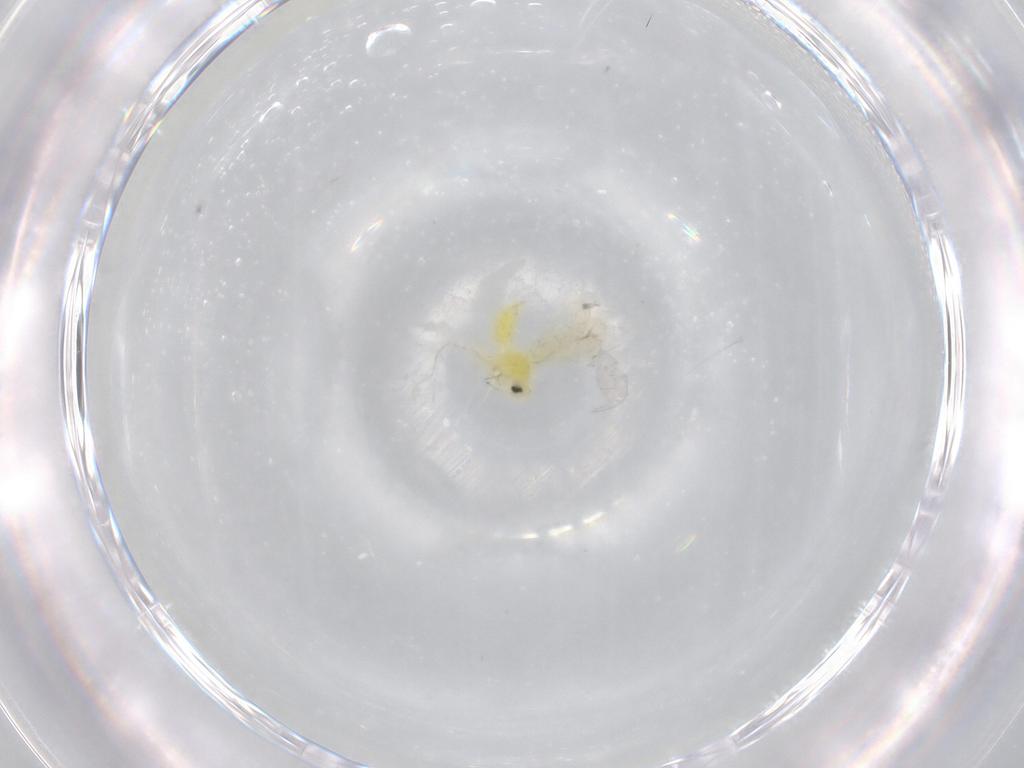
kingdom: Animalia
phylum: Arthropoda
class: Insecta
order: Hemiptera
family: Aleyrodidae
